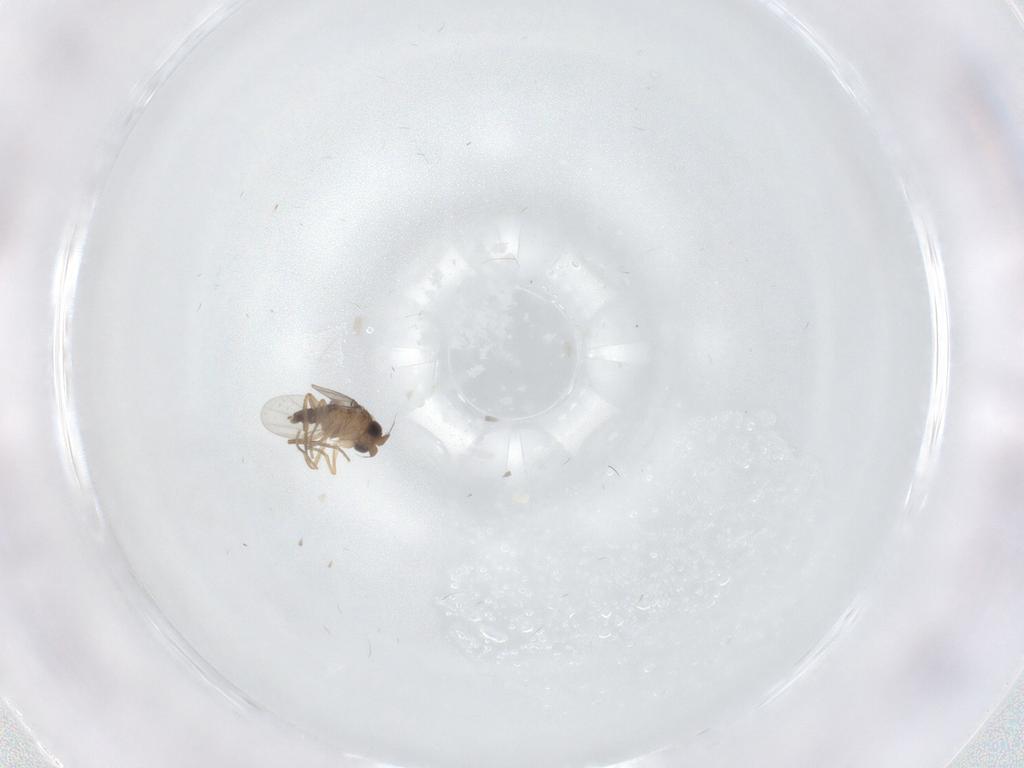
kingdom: Animalia
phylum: Arthropoda
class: Insecta
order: Diptera
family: Phoridae
